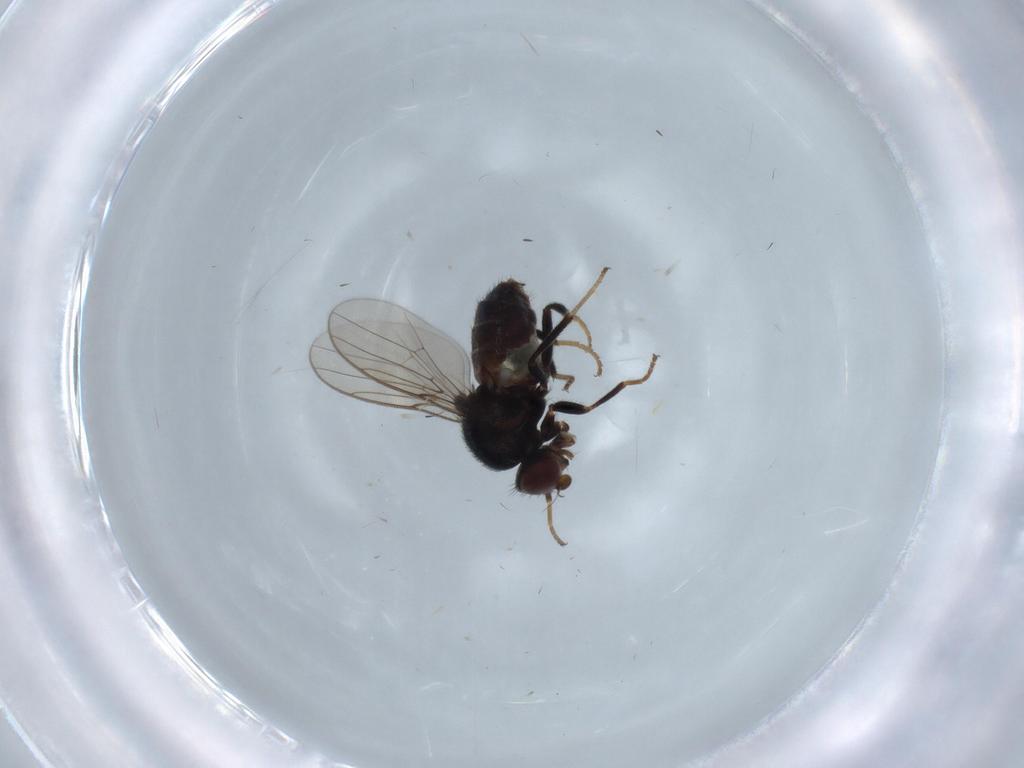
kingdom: Animalia
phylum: Arthropoda
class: Insecta
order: Diptera
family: Chloropidae
